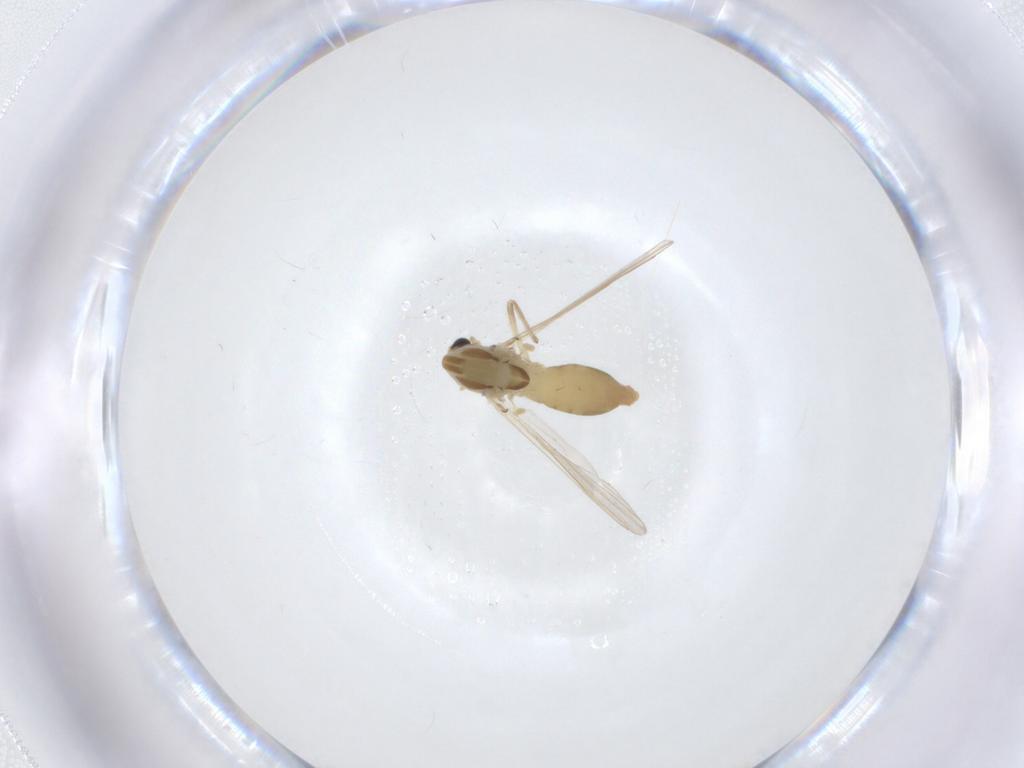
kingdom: Animalia
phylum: Arthropoda
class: Insecta
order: Diptera
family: Chironomidae
